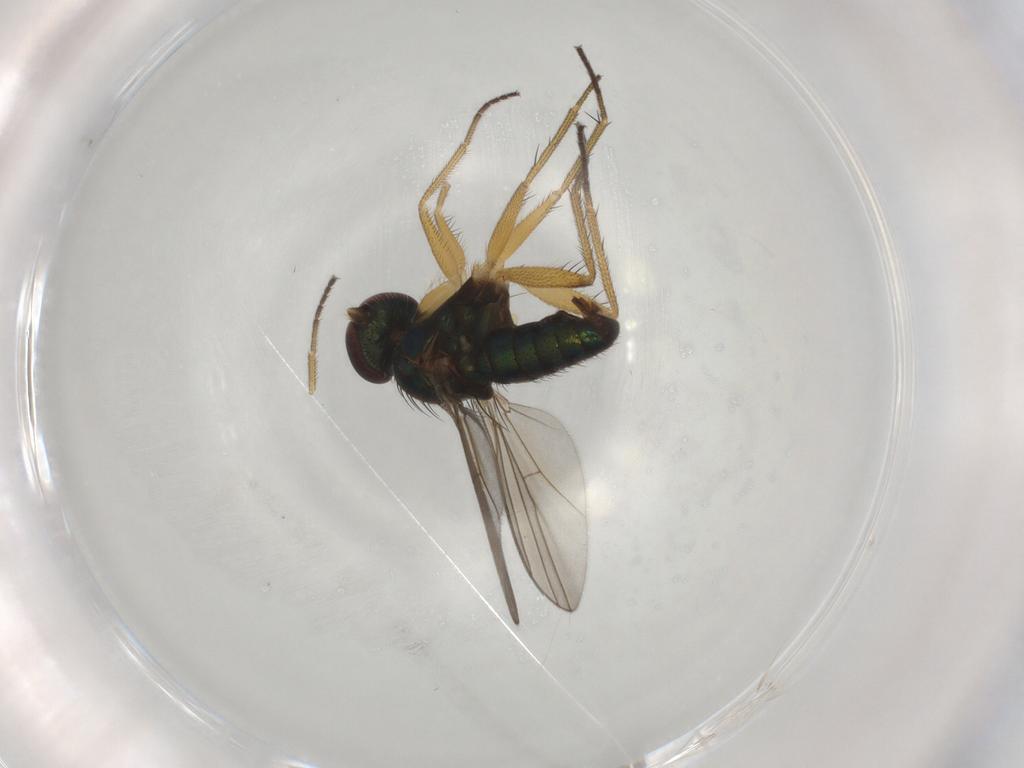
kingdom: Animalia
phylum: Arthropoda
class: Insecta
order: Diptera
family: Dolichopodidae
